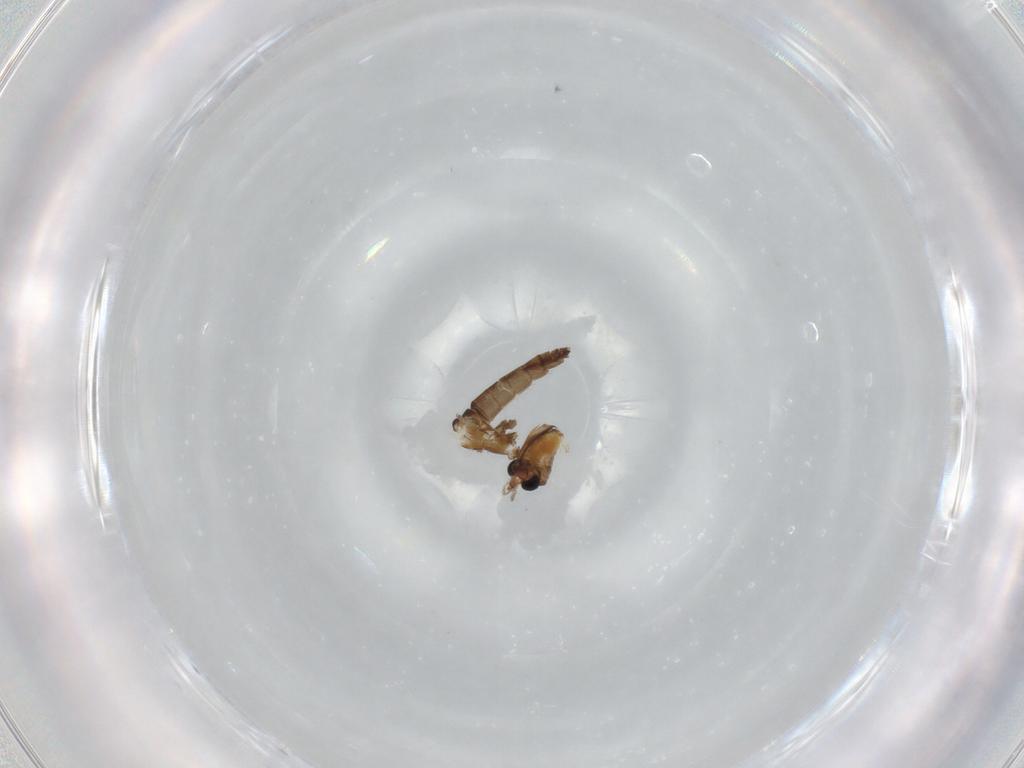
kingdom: Animalia
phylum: Arthropoda
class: Insecta
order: Diptera
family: Chironomidae
